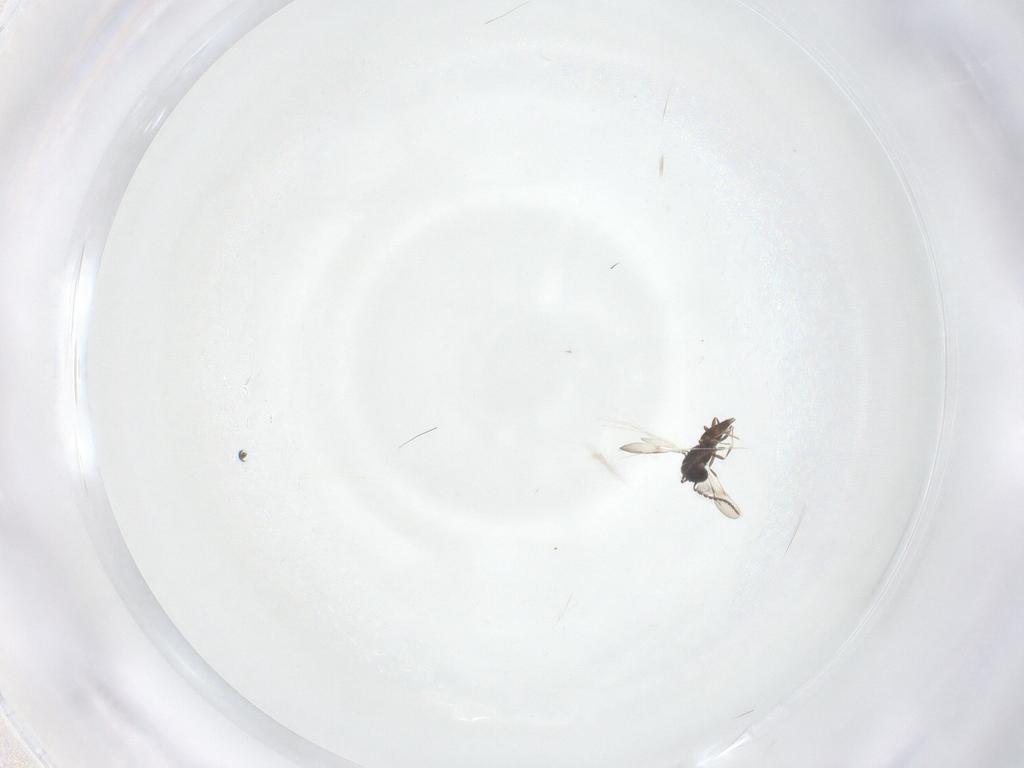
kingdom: Animalia
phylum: Arthropoda
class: Insecta
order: Hymenoptera
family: Ceraphronidae
